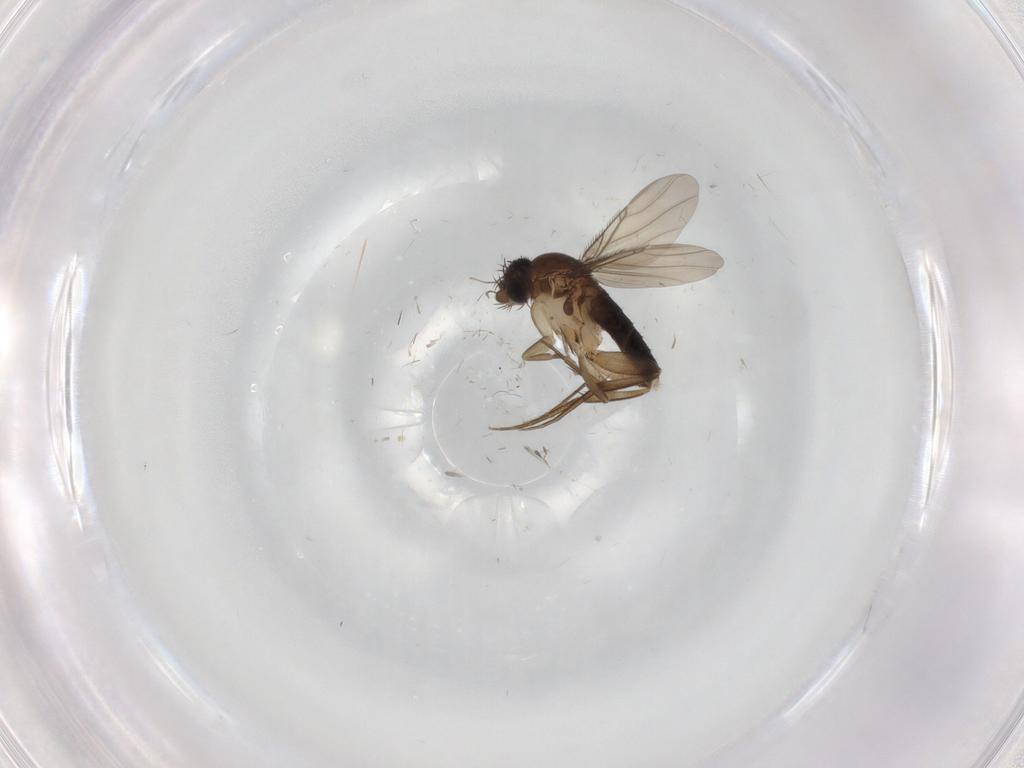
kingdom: Animalia
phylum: Arthropoda
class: Insecta
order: Diptera
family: Phoridae
